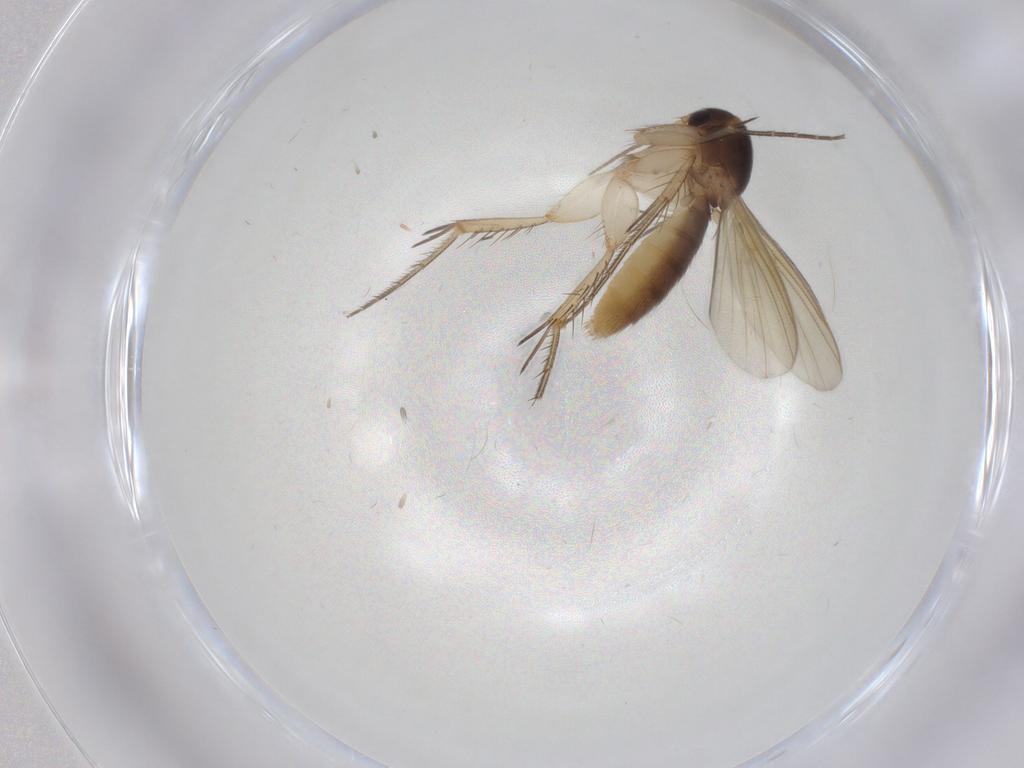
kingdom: Animalia
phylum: Arthropoda
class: Insecta
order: Diptera
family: Mycetophilidae
